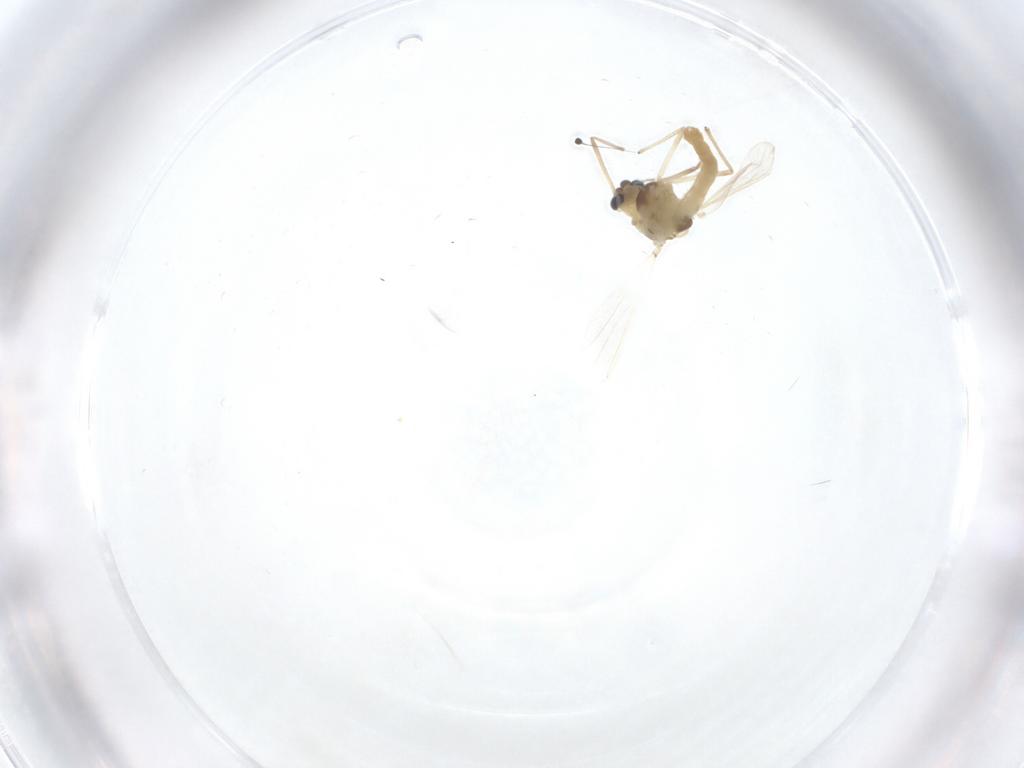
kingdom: Animalia
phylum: Arthropoda
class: Insecta
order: Diptera
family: Dolichopodidae
